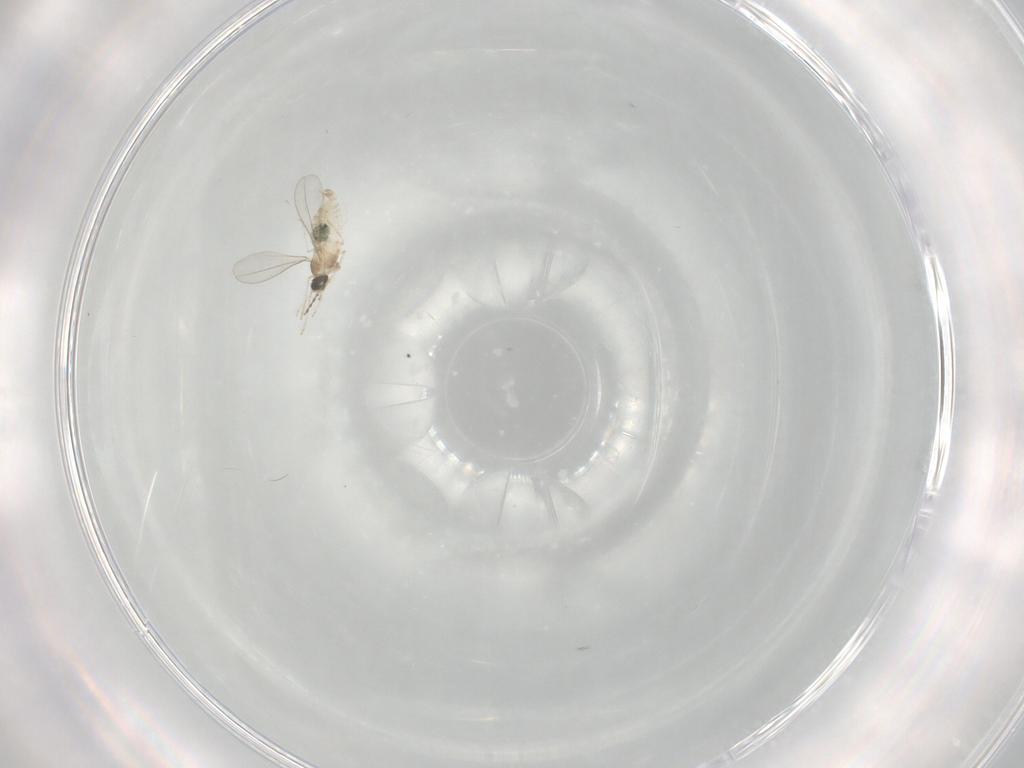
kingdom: Animalia
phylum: Arthropoda
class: Insecta
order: Diptera
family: Cecidomyiidae
